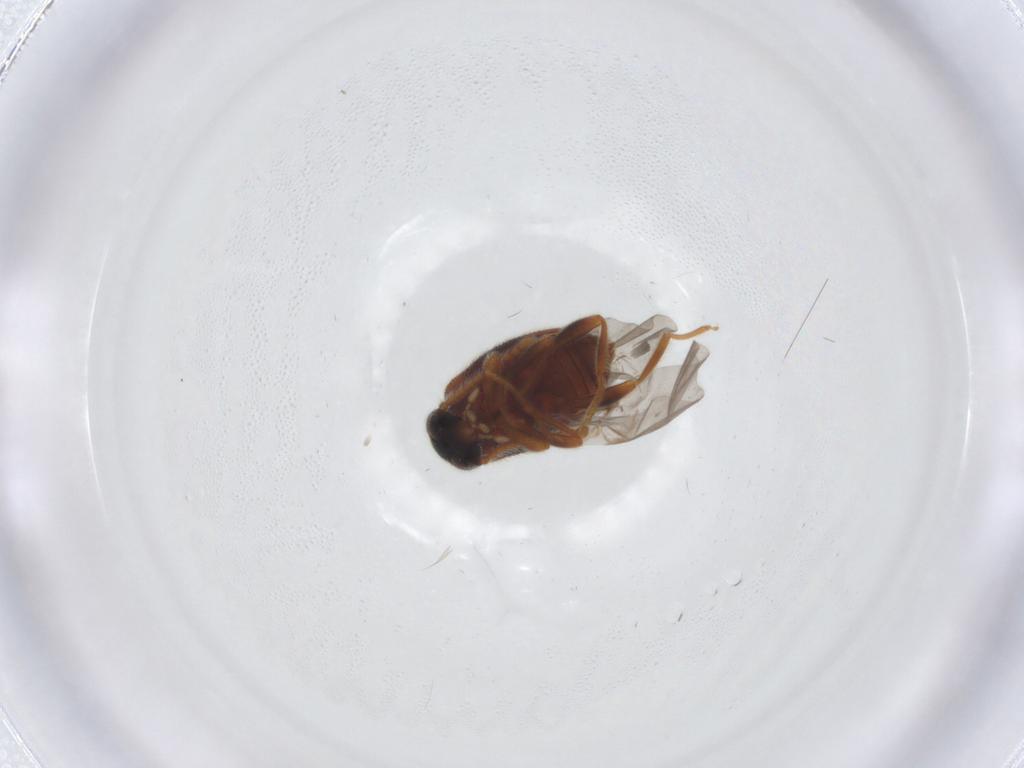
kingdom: Animalia
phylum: Arthropoda
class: Insecta
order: Coleoptera
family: Aderidae
